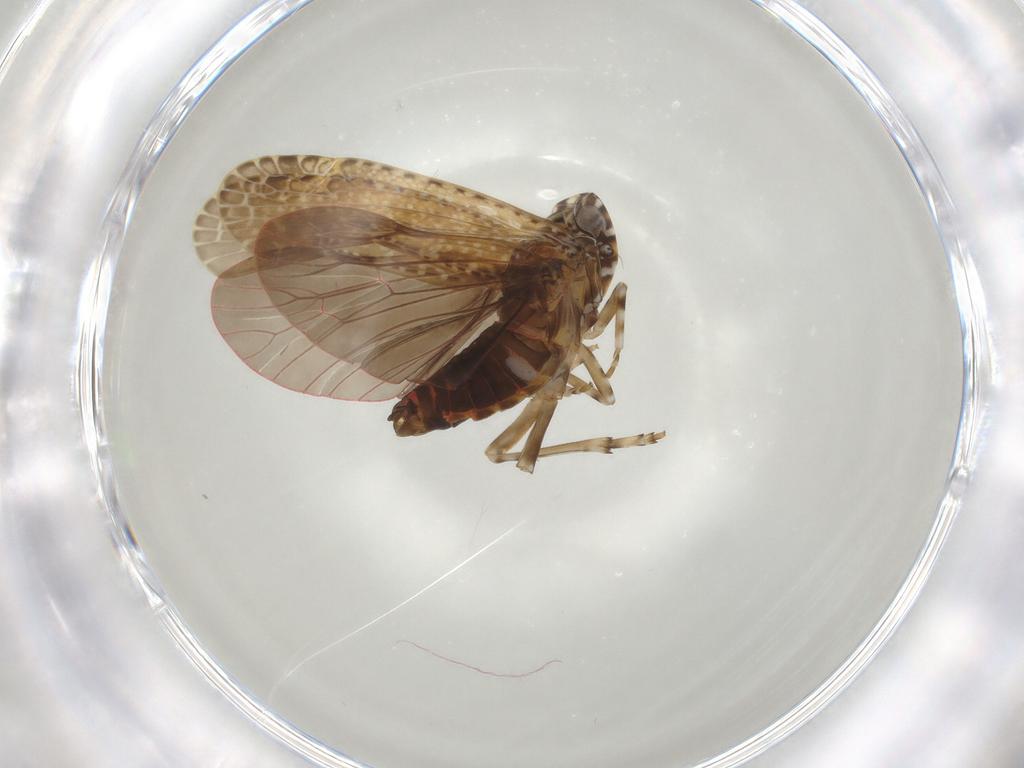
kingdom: Animalia
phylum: Arthropoda
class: Insecta
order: Hemiptera
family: Achilidae
